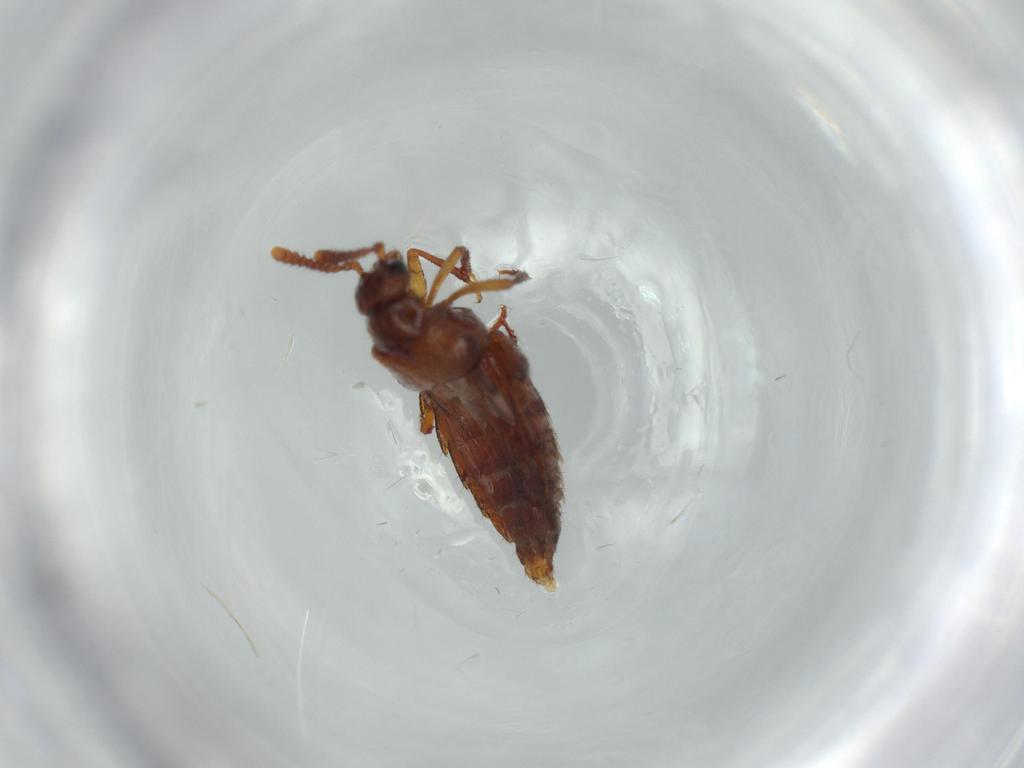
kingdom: Animalia
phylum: Arthropoda
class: Insecta
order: Coleoptera
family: Staphylinidae
